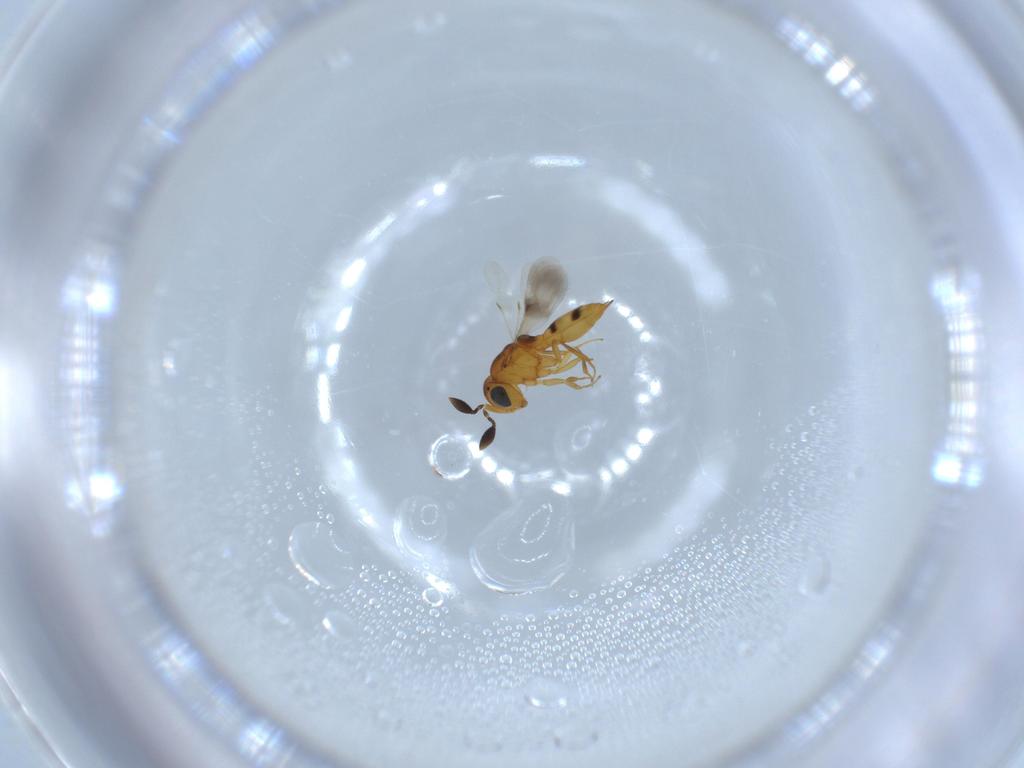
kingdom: Animalia
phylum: Arthropoda
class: Insecta
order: Hymenoptera
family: Scelionidae
